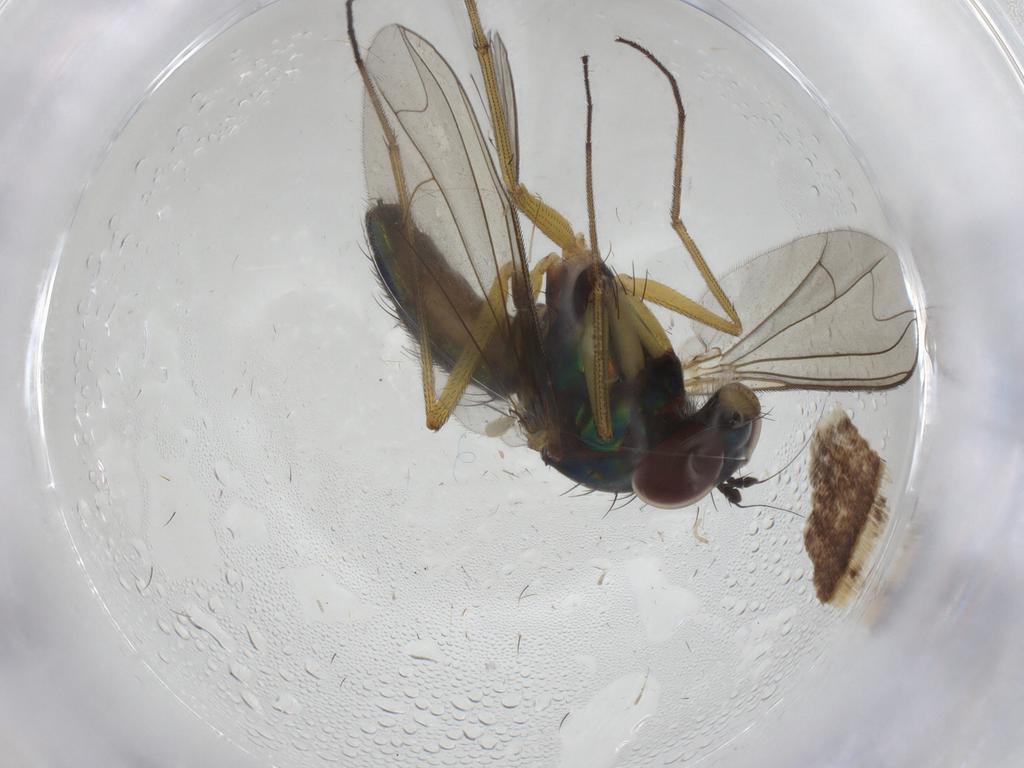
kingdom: Animalia
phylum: Arthropoda
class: Insecta
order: Diptera
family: Dolichopodidae
